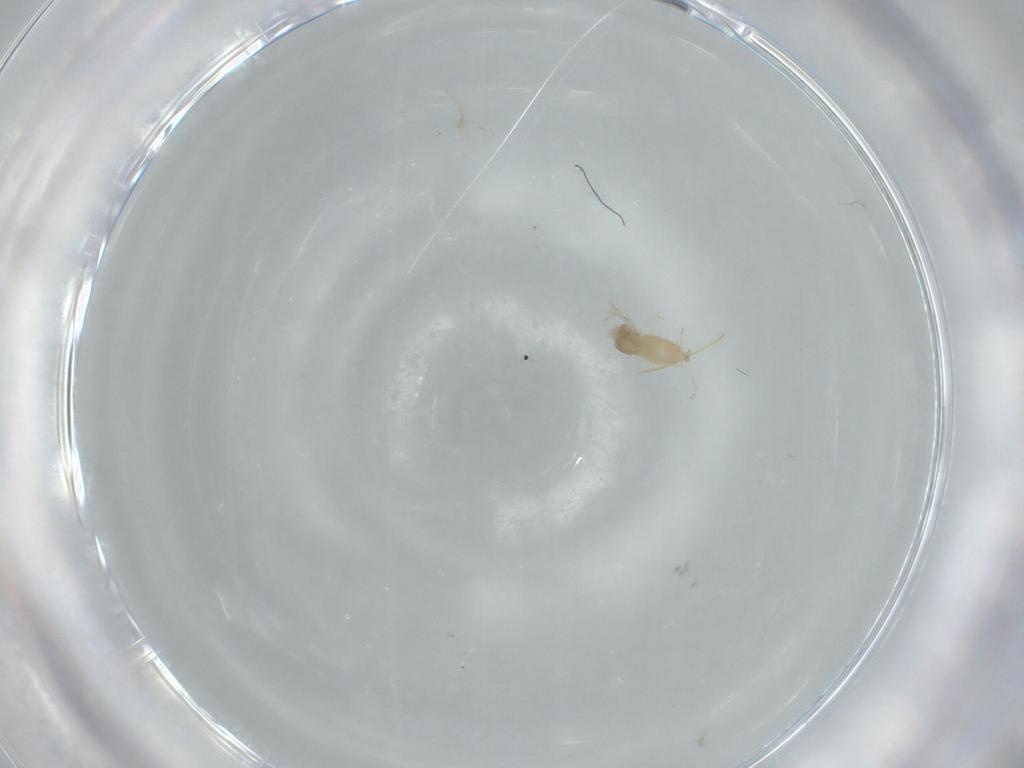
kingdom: Animalia
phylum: Arthropoda
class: Insecta
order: Diptera
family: Cecidomyiidae
